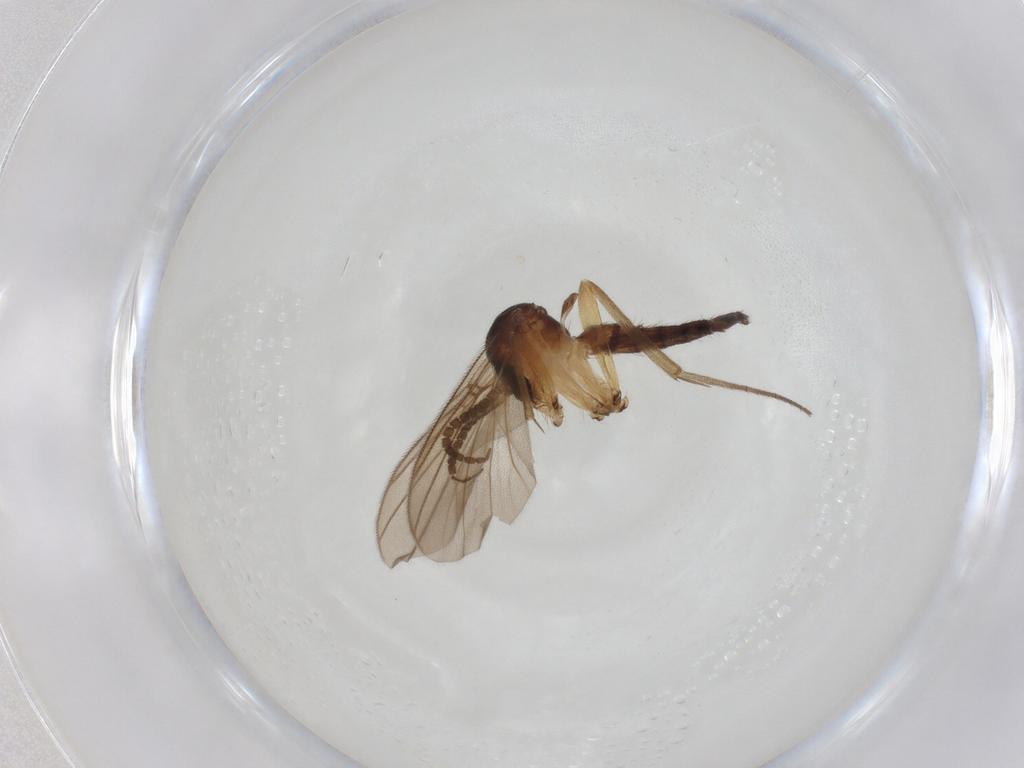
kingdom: Animalia
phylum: Arthropoda
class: Insecta
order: Diptera
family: Mycetophilidae
